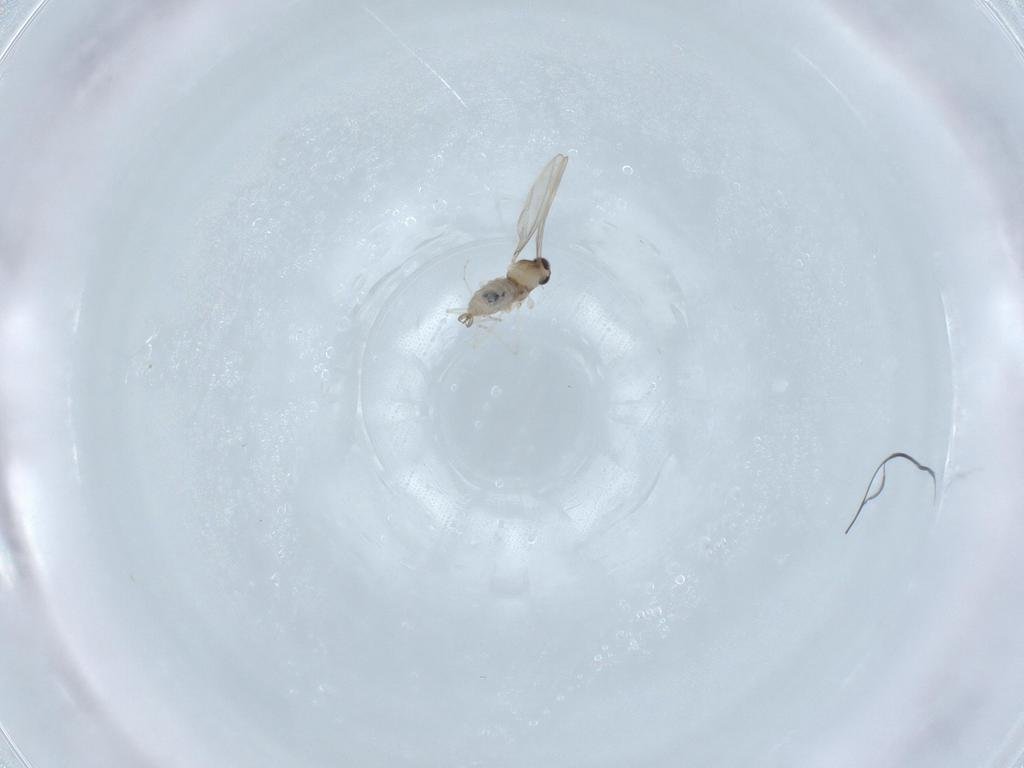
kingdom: Animalia
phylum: Arthropoda
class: Insecta
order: Diptera
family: Cecidomyiidae
